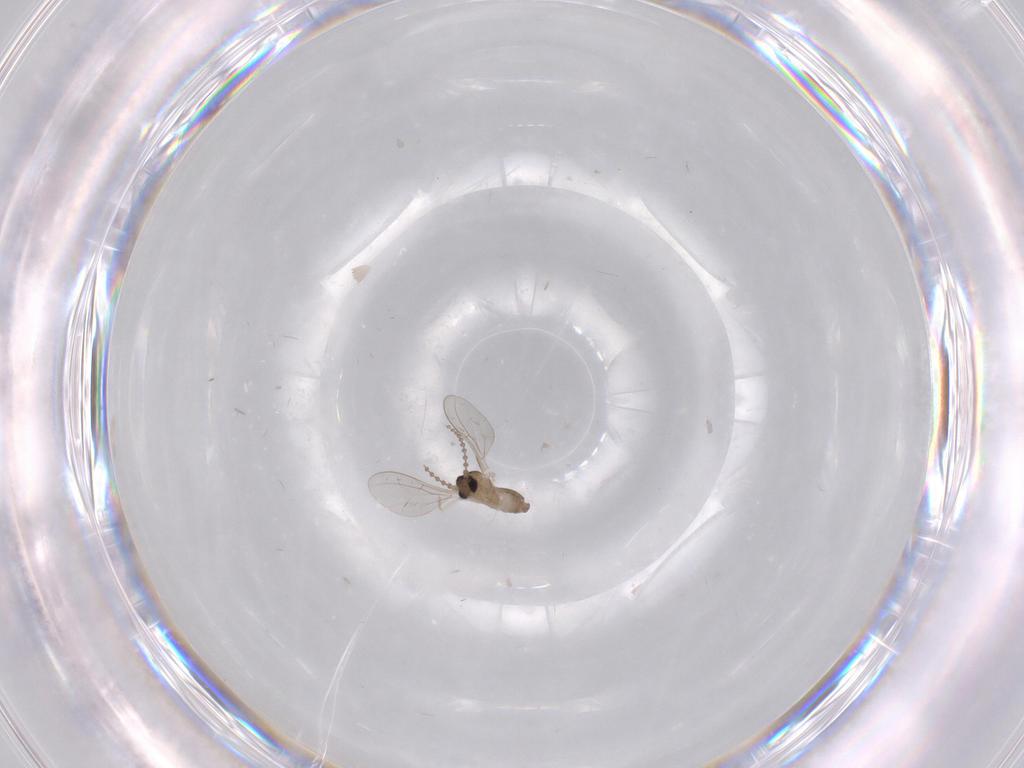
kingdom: Animalia
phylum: Arthropoda
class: Insecta
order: Diptera
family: Limoniidae
